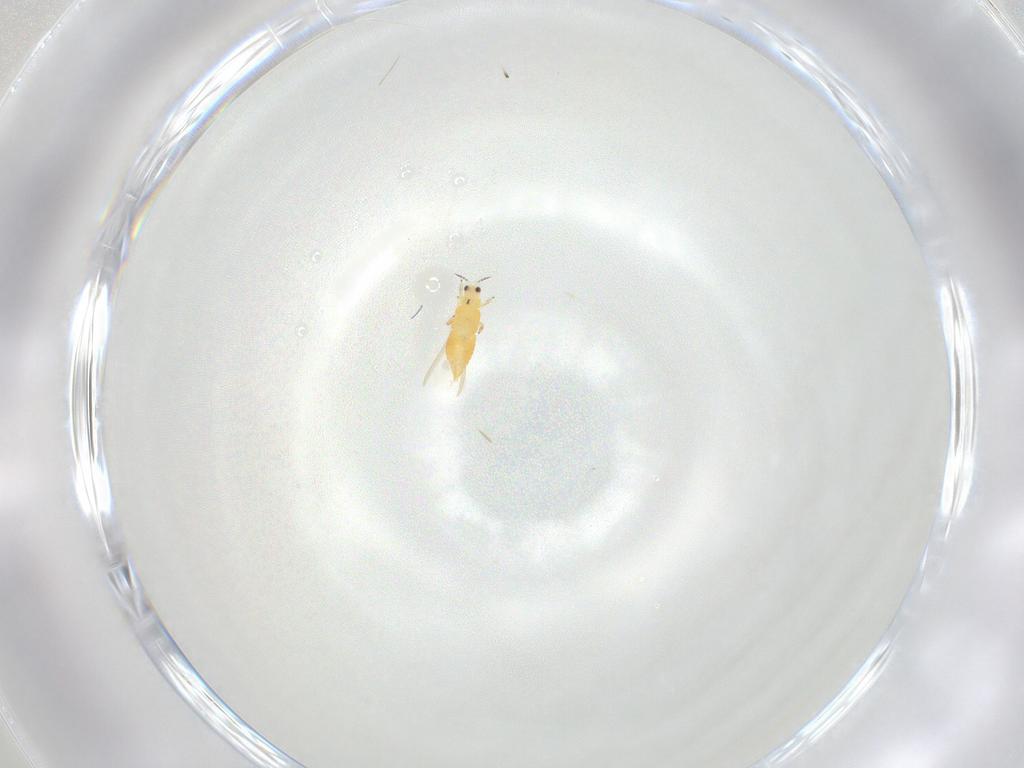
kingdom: Animalia
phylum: Arthropoda
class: Insecta
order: Thysanoptera
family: Thripidae
